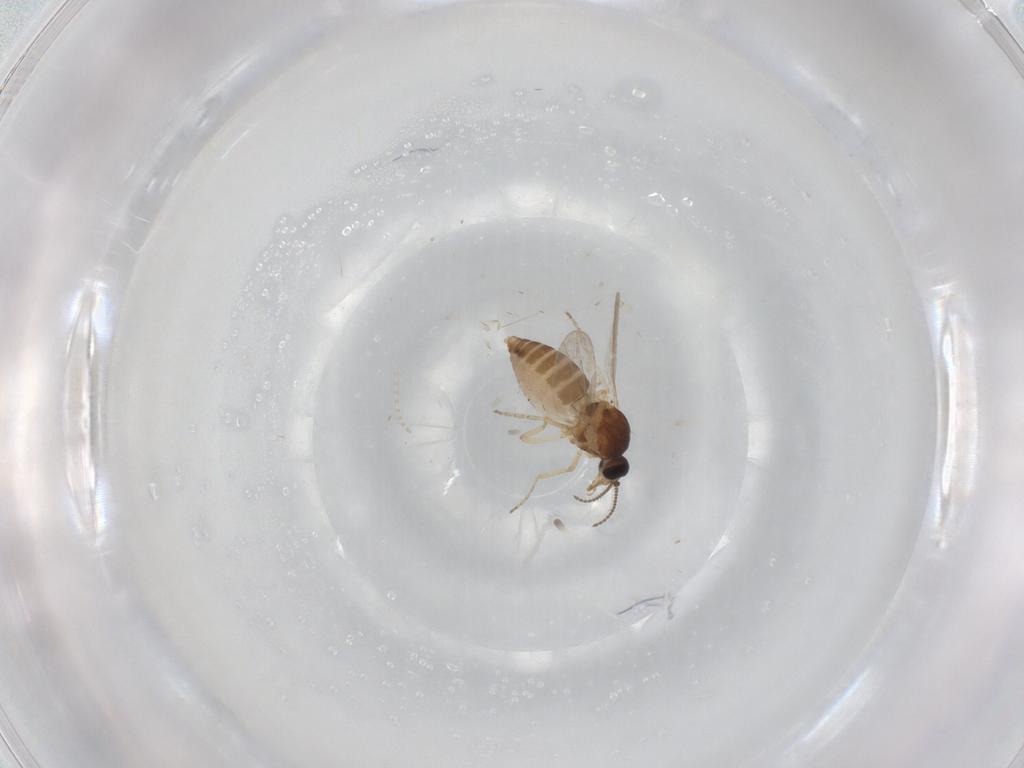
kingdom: Animalia
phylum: Arthropoda
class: Insecta
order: Diptera
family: Ceratopogonidae
